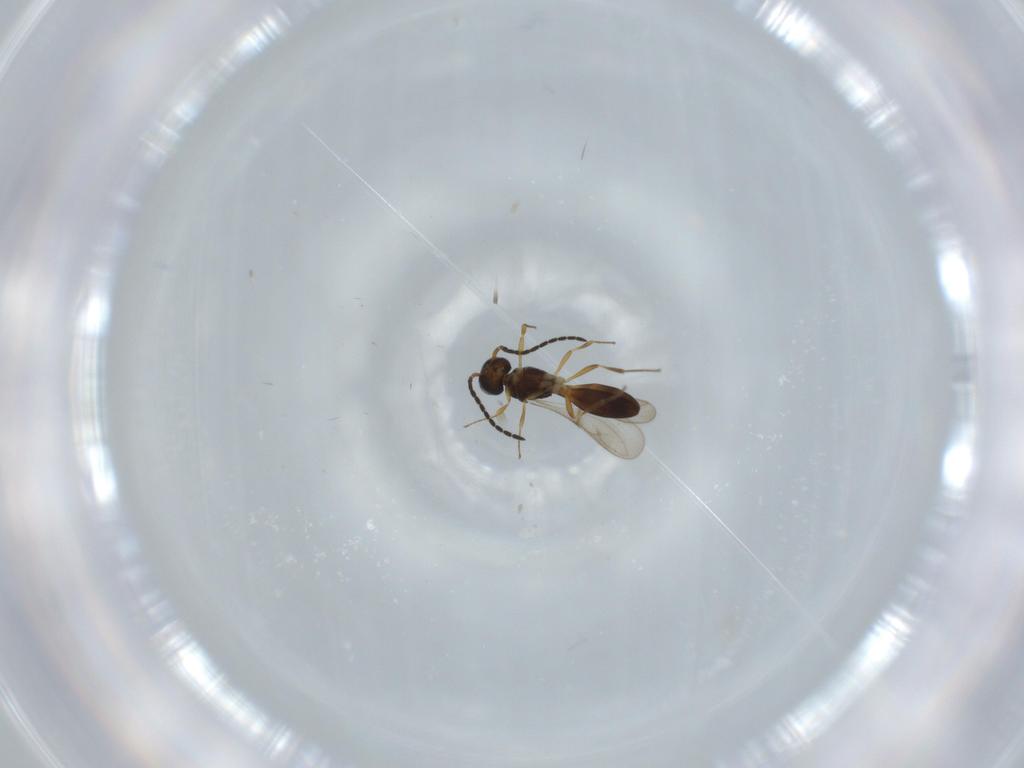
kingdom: Animalia
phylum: Arthropoda
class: Insecta
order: Hymenoptera
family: Scelionidae
